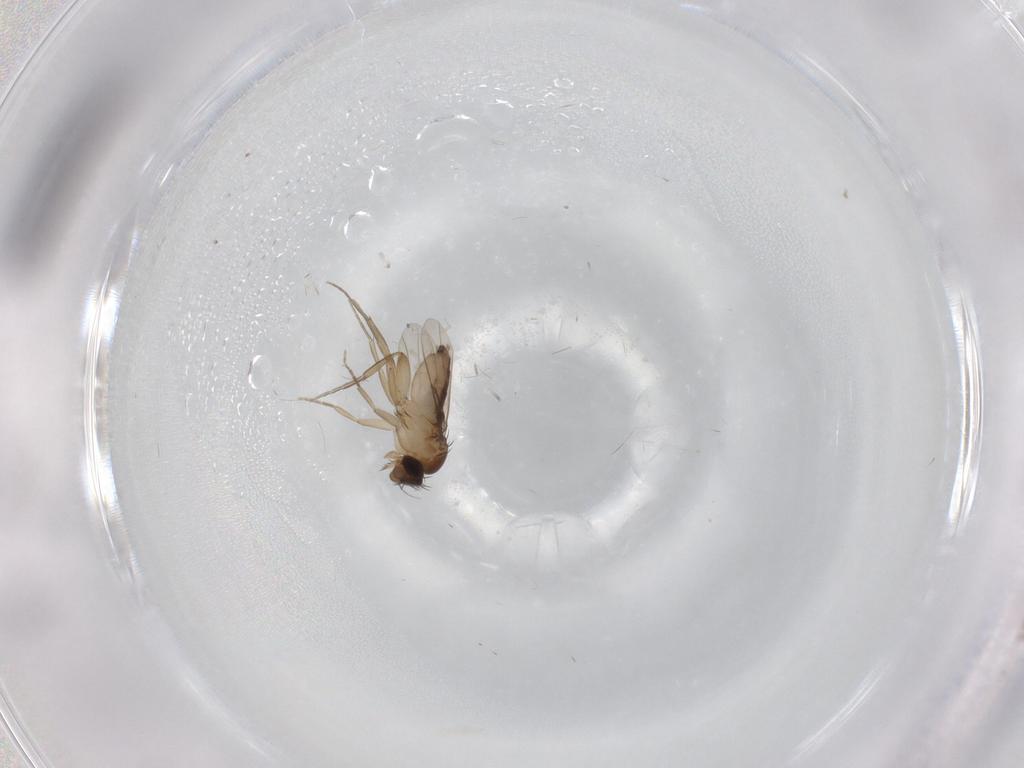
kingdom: Animalia
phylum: Arthropoda
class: Insecta
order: Diptera
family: Phoridae
